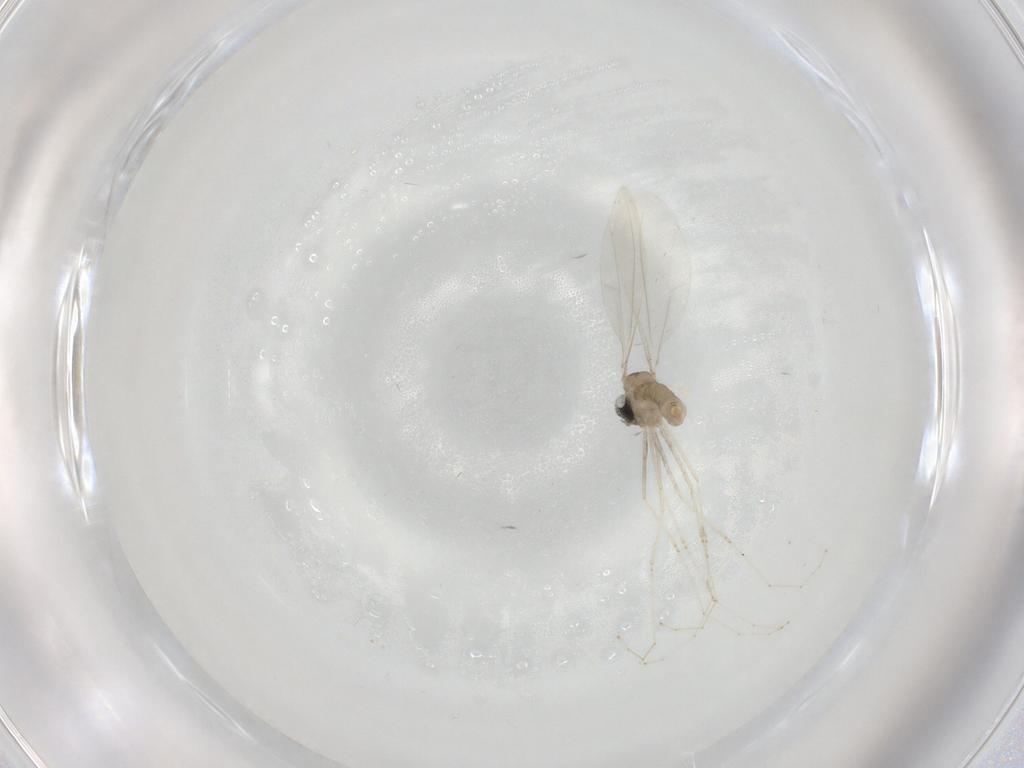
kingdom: Animalia
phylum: Arthropoda
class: Insecta
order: Diptera
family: Cecidomyiidae
